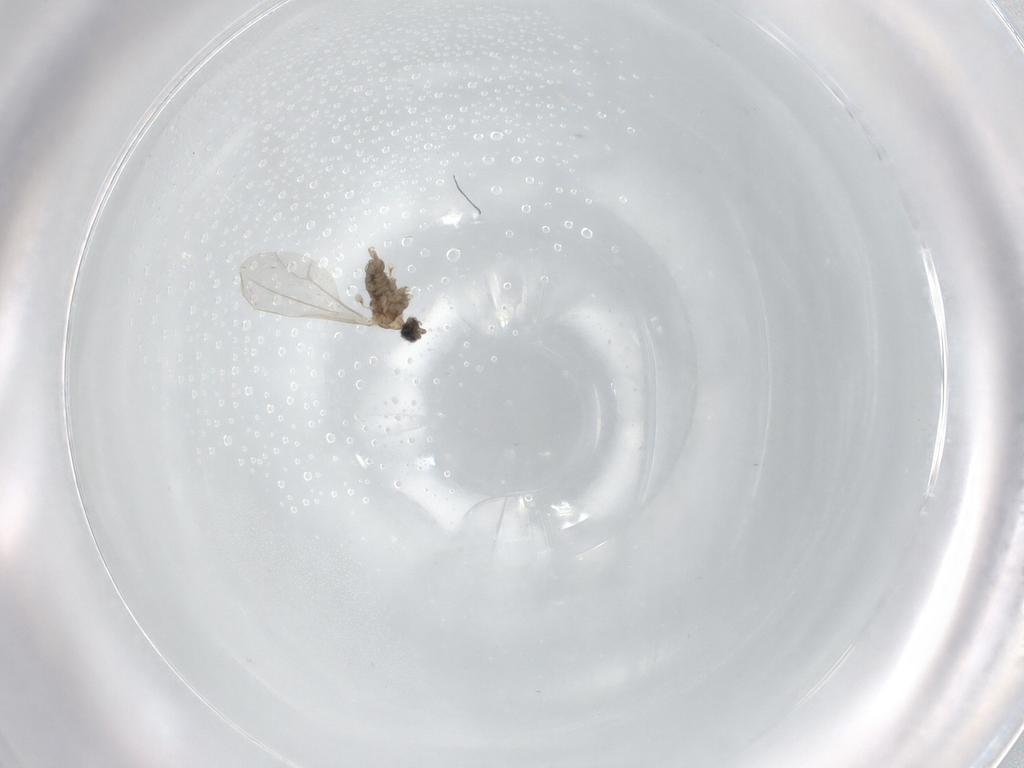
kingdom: Animalia
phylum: Arthropoda
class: Insecta
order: Diptera
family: Cecidomyiidae
